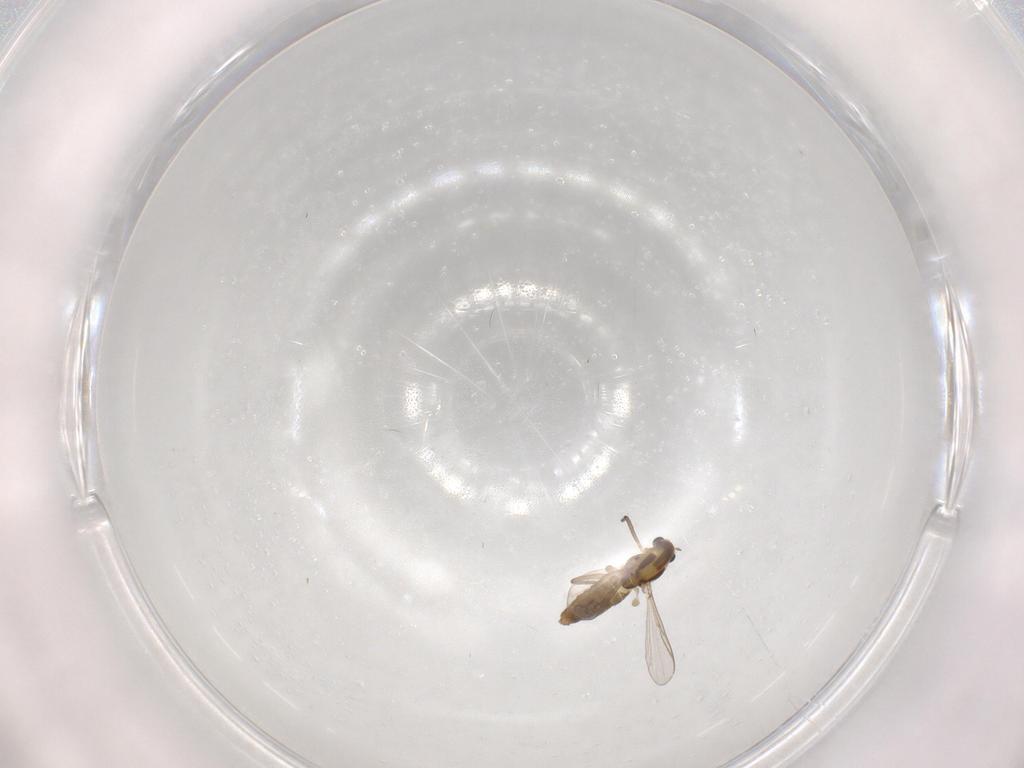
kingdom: Animalia
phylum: Arthropoda
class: Insecta
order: Diptera
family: Chironomidae
